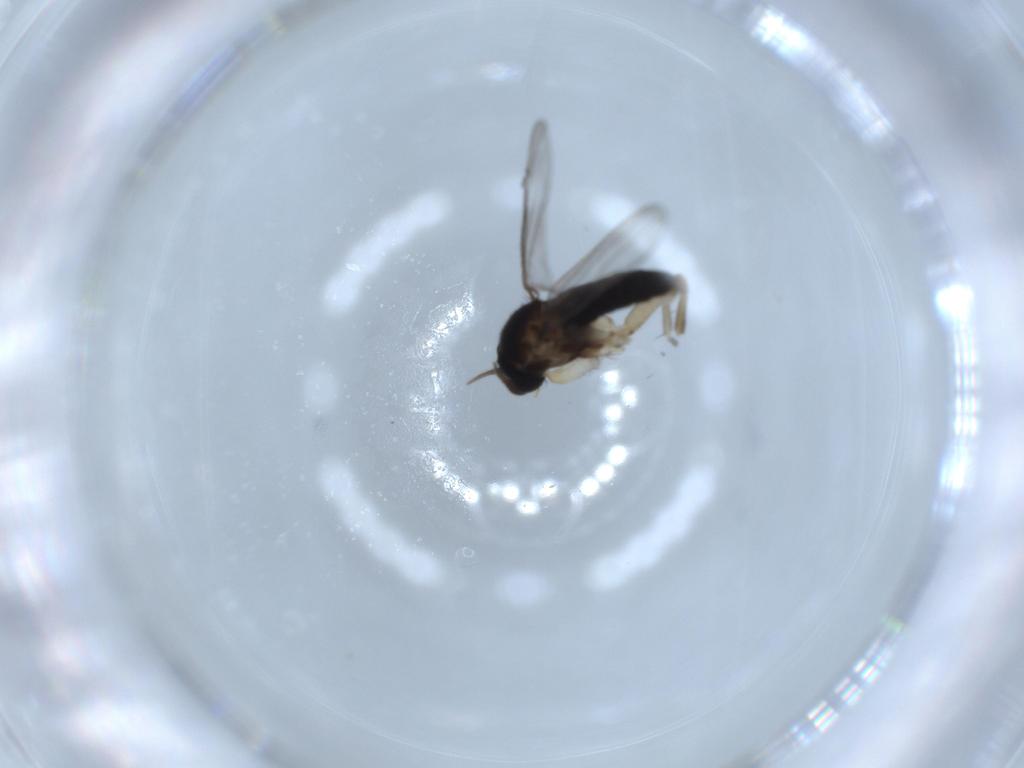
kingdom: Animalia
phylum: Arthropoda
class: Insecta
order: Diptera
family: Phoridae
